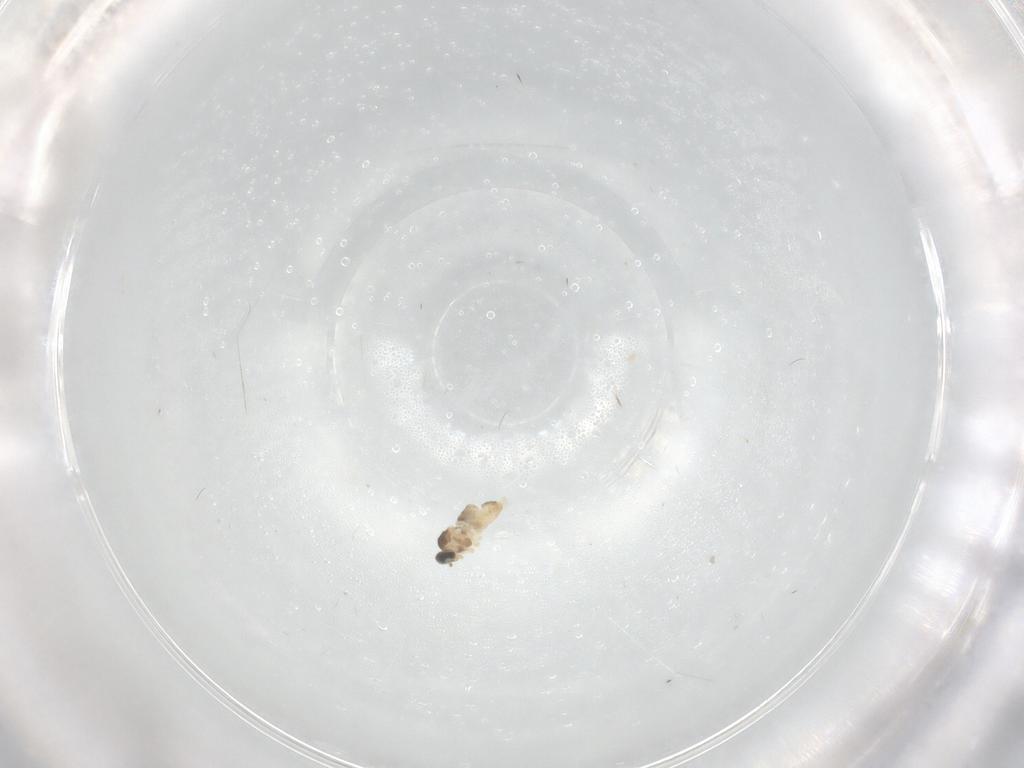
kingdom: Animalia
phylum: Arthropoda
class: Insecta
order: Diptera
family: Cecidomyiidae
